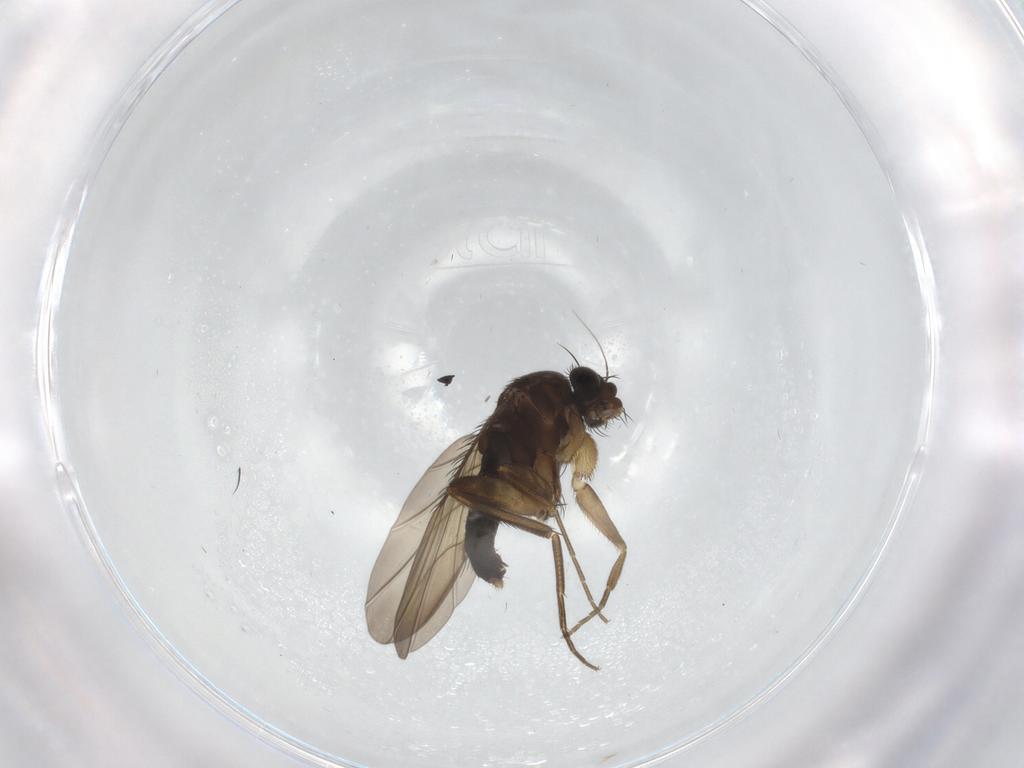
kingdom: Animalia
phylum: Arthropoda
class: Insecta
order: Diptera
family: Phoridae
